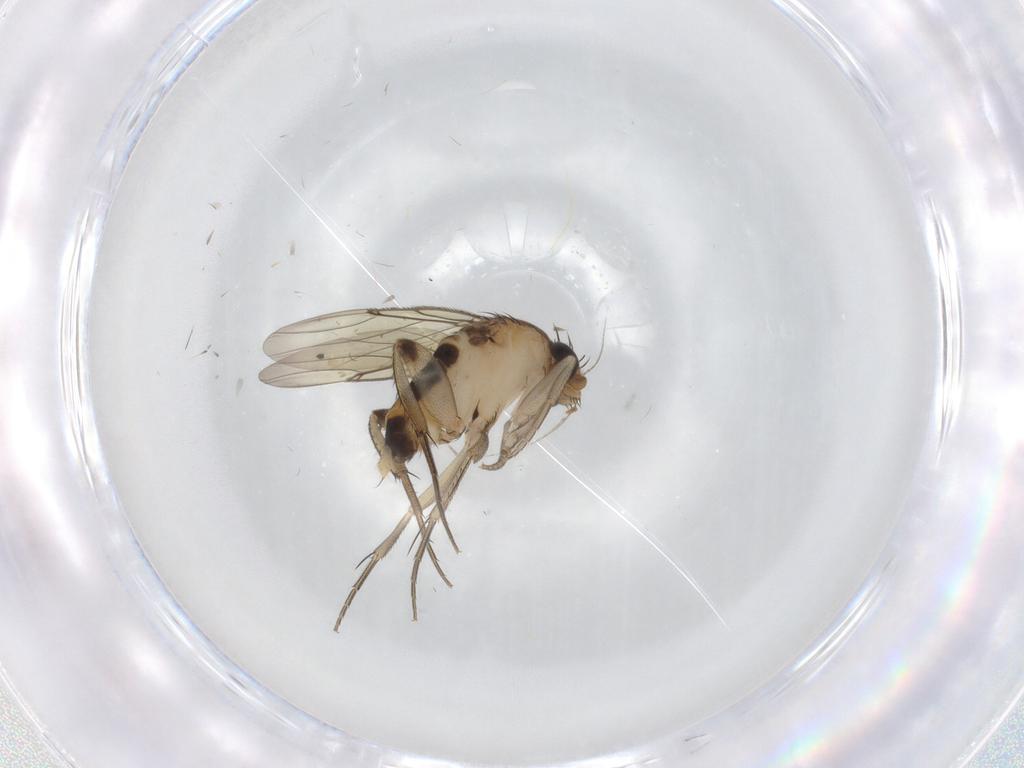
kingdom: Animalia
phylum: Arthropoda
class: Insecta
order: Diptera
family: Phoridae
